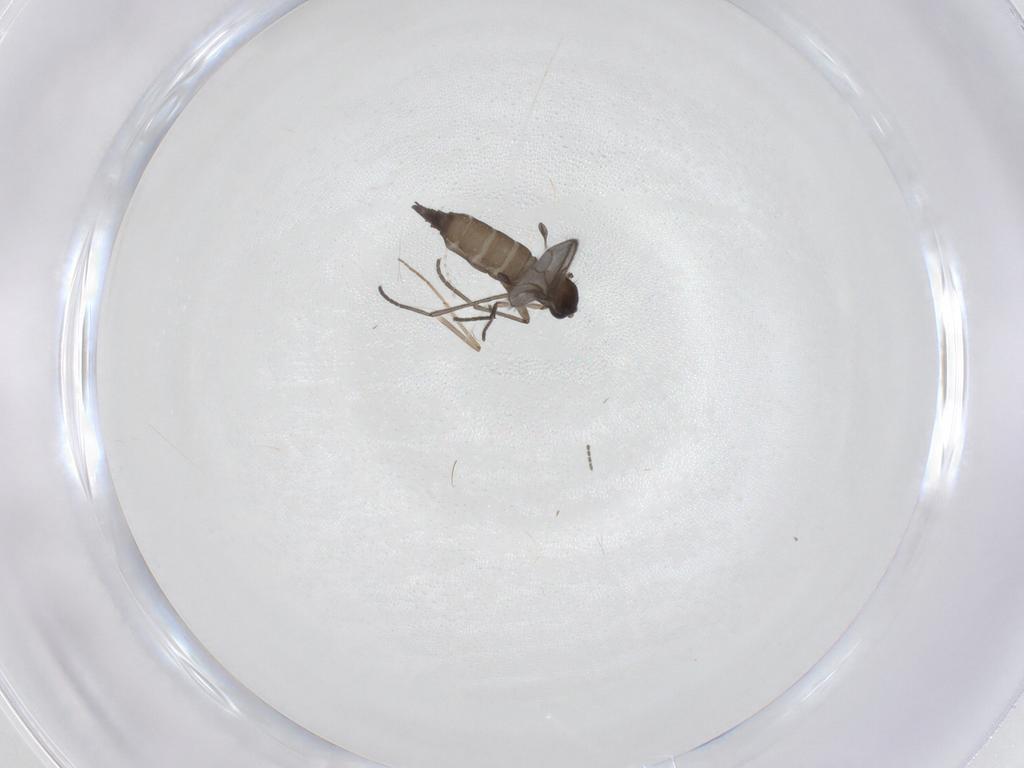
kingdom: Animalia
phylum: Arthropoda
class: Insecta
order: Diptera
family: Chironomidae
